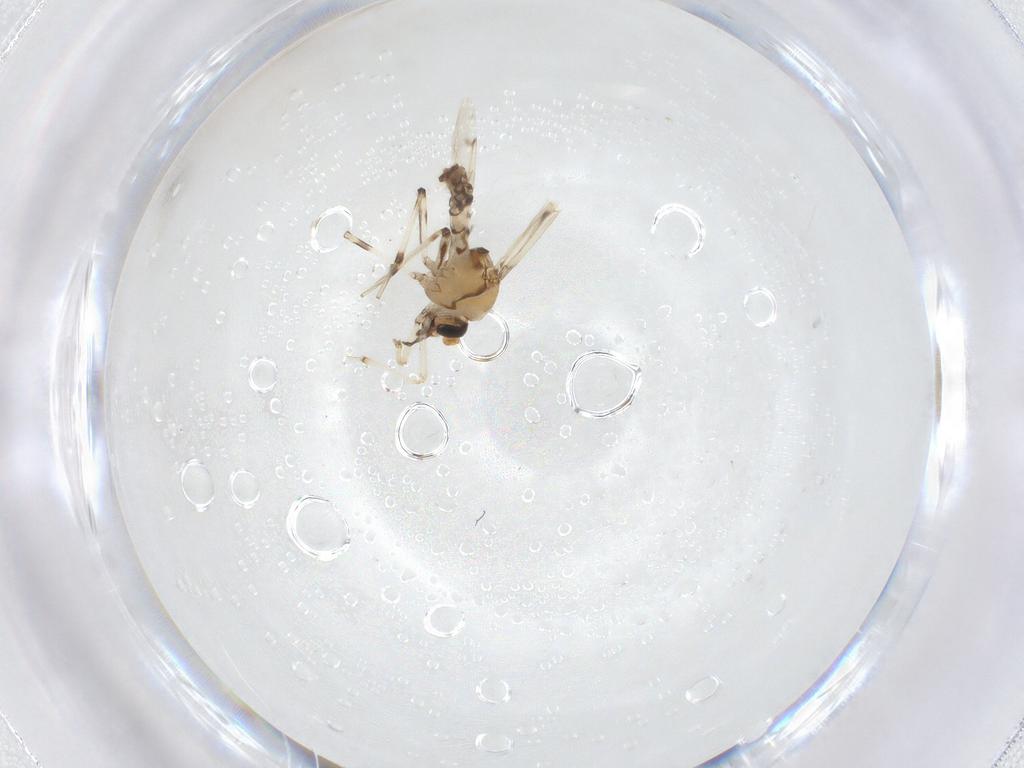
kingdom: Animalia
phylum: Arthropoda
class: Insecta
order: Diptera
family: Ceratopogonidae
